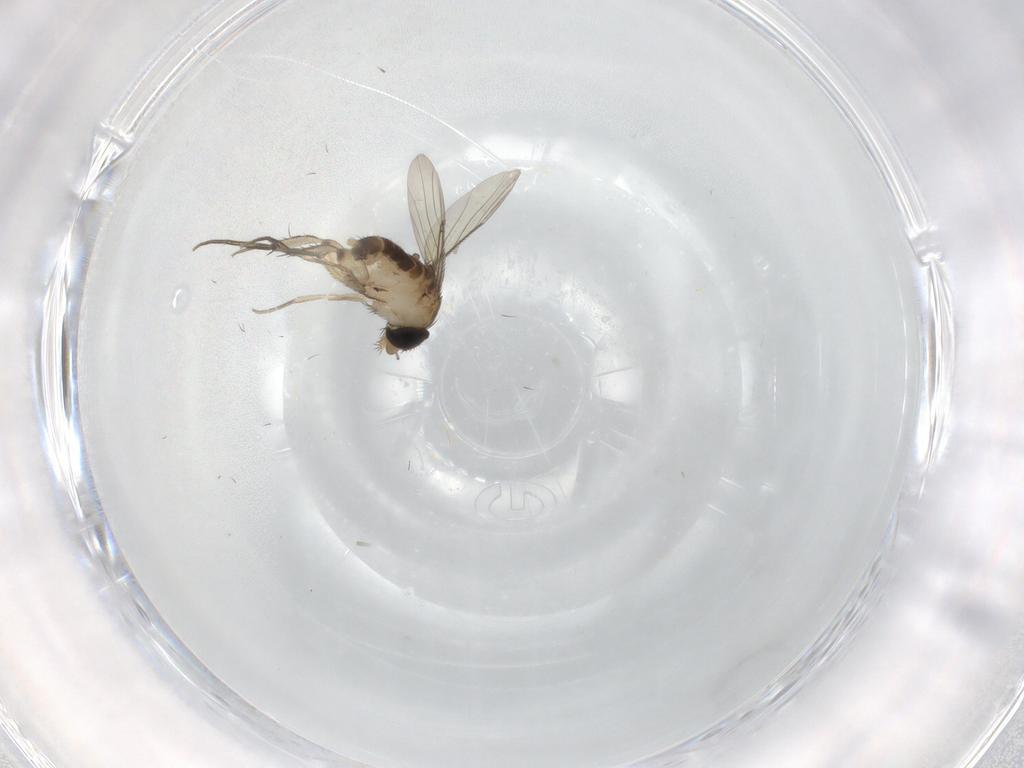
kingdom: Animalia
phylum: Arthropoda
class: Insecta
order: Diptera
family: Phoridae
